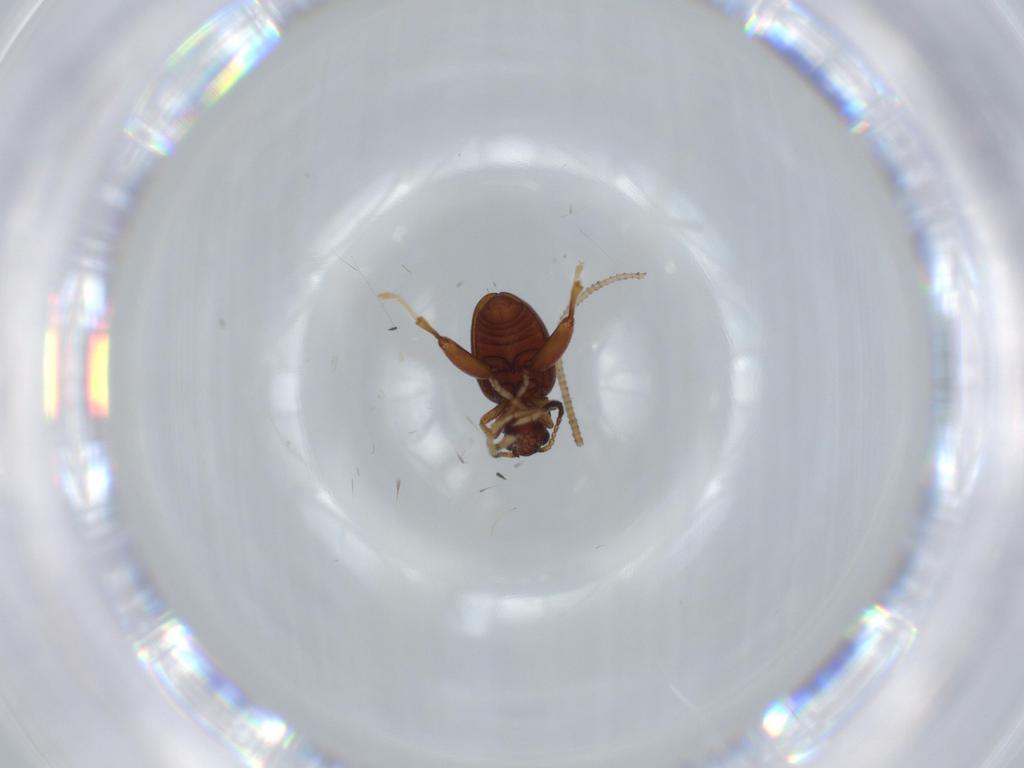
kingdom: Animalia
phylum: Arthropoda
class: Insecta
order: Coleoptera
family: Chrysomelidae
